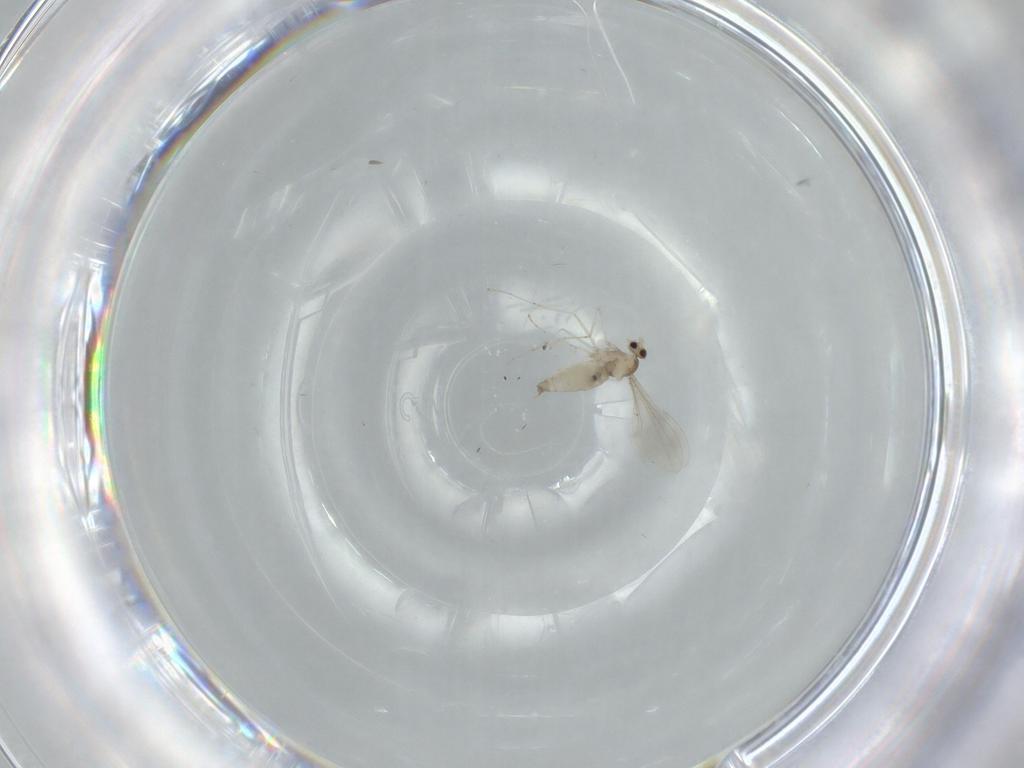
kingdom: Animalia
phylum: Arthropoda
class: Insecta
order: Diptera
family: Cecidomyiidae
